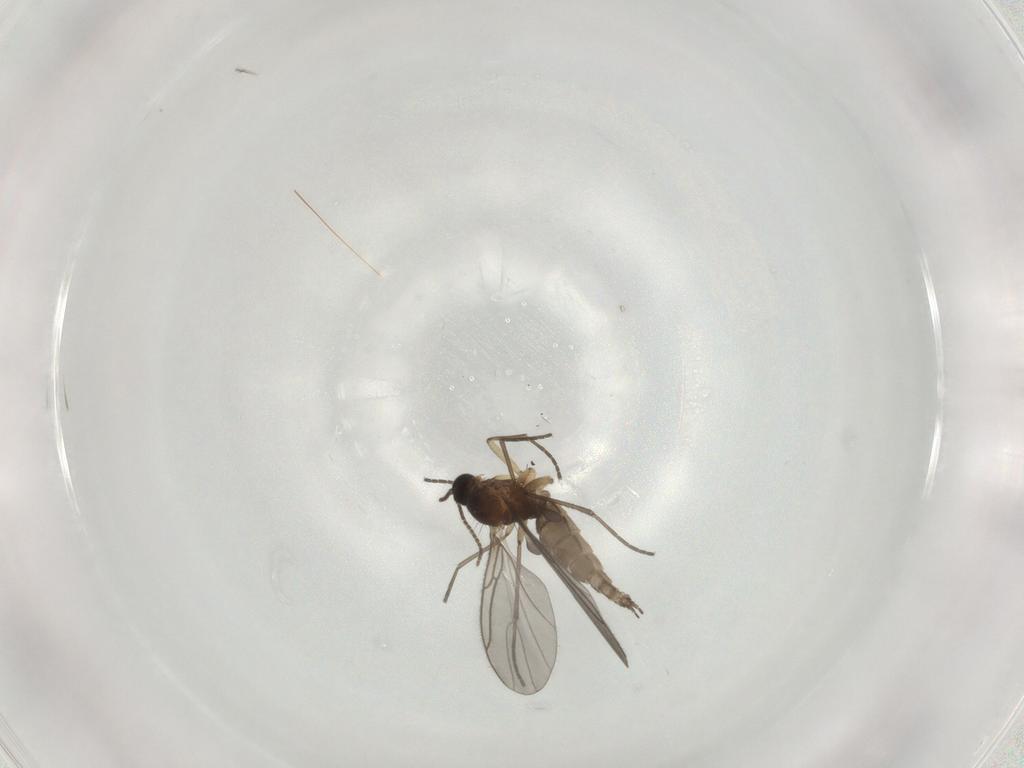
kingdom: Animalia
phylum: Arthropoda
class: Insecta
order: Diptera
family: Sciaridae
